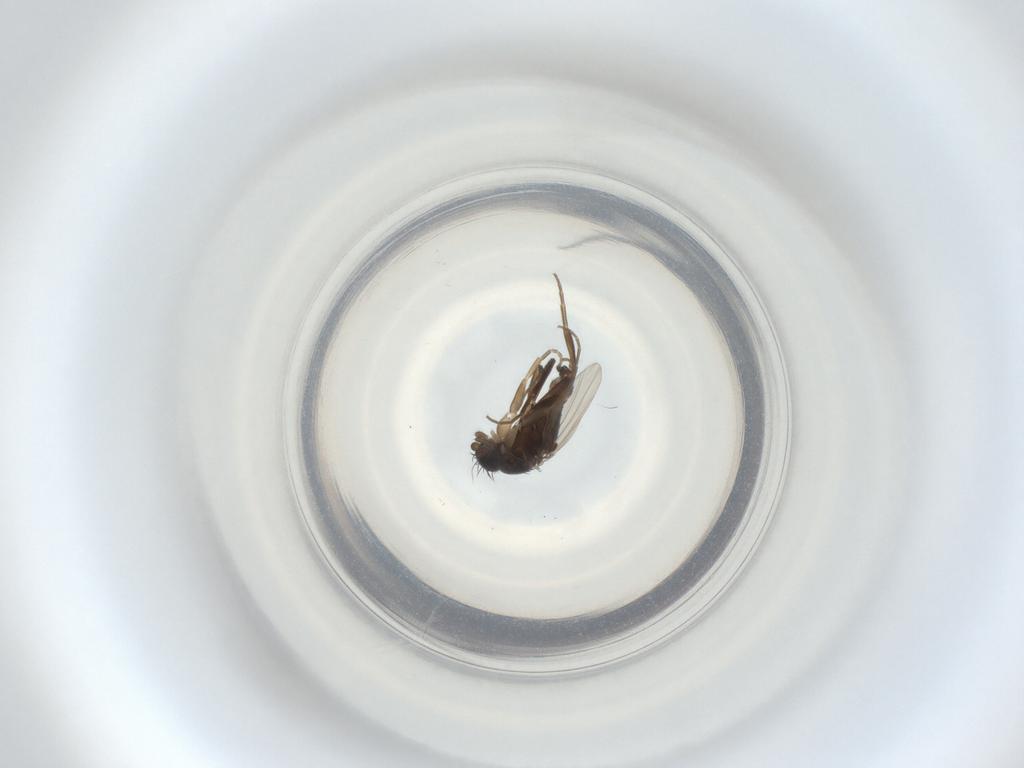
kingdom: Animalia
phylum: Arthropoda
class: Insecta
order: Diptera
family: Phoridae
